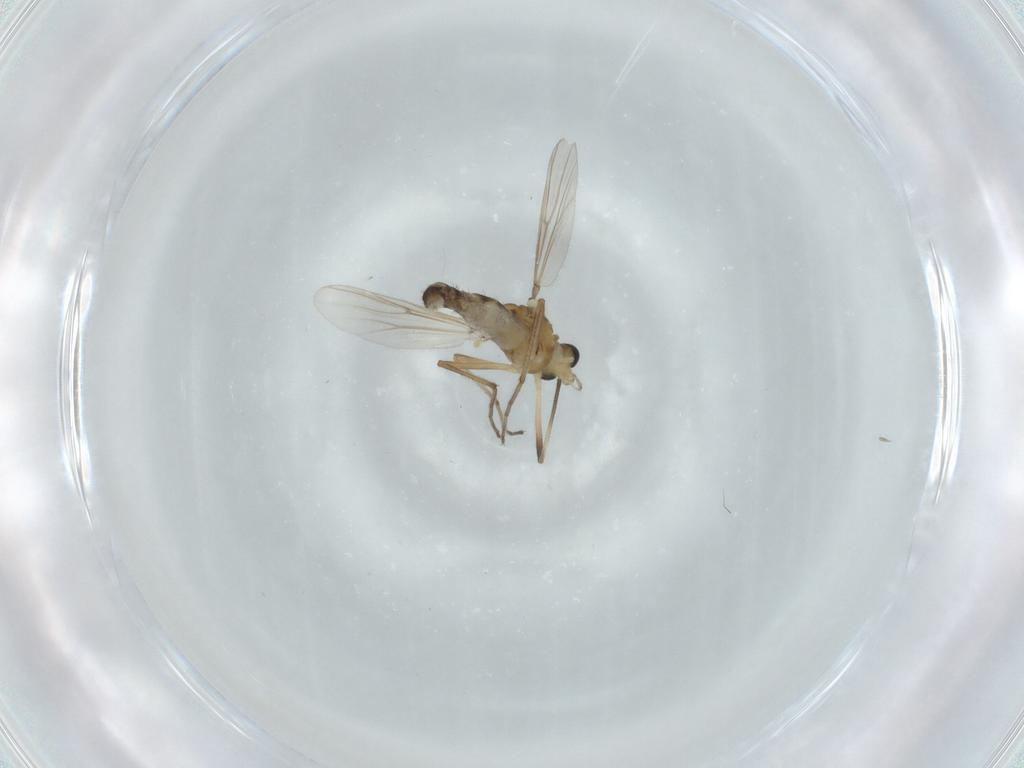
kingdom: Animalia
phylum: Arthropoda
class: Insecta
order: Diptera
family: Chironomidae
